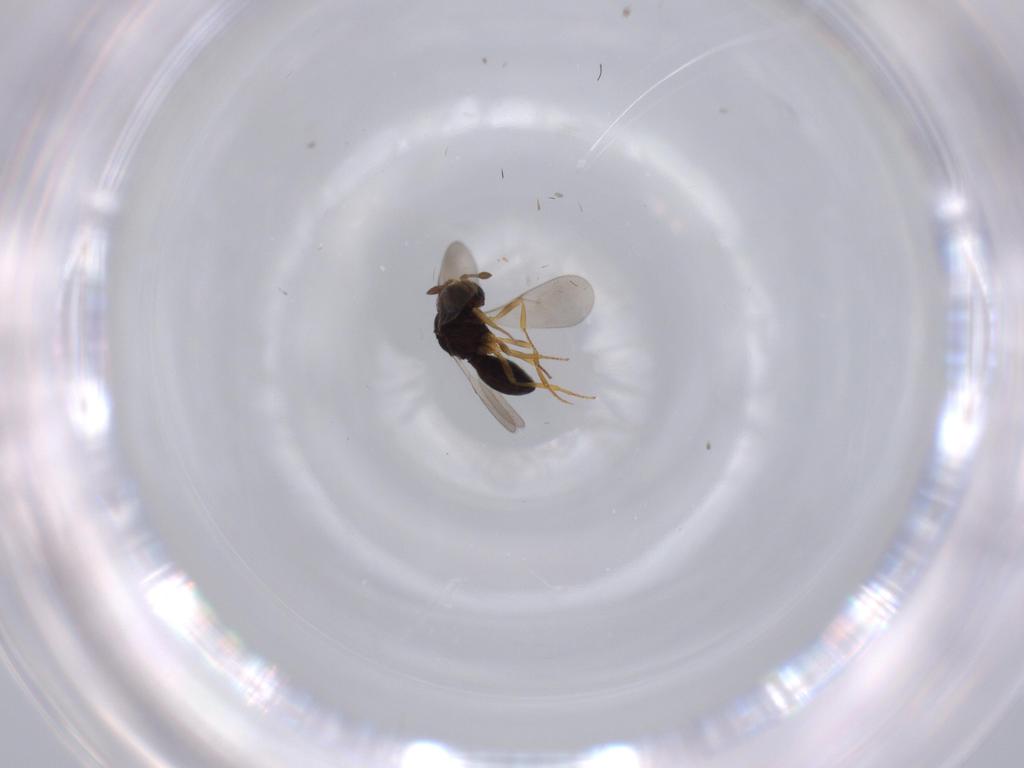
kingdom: Animalia
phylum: Arthropoda
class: Insecta
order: Hymenoptera
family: Scelionidae
